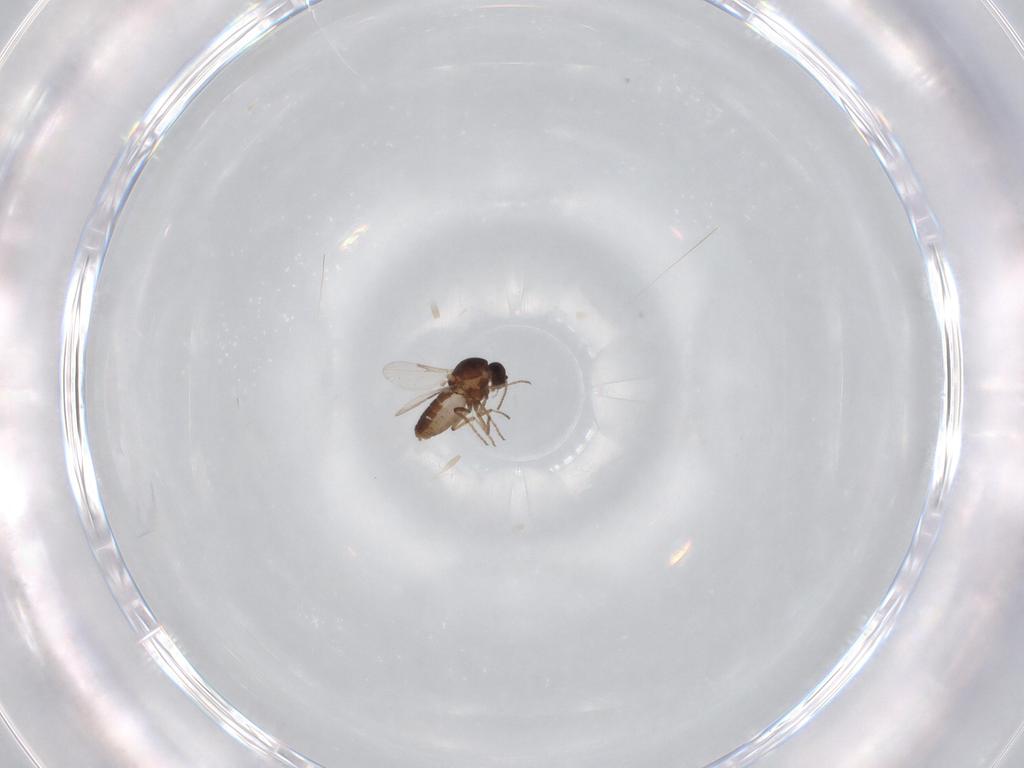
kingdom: Animalia
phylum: Arthropoda
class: Insecta
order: Diptera
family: Ceratopogonidae
